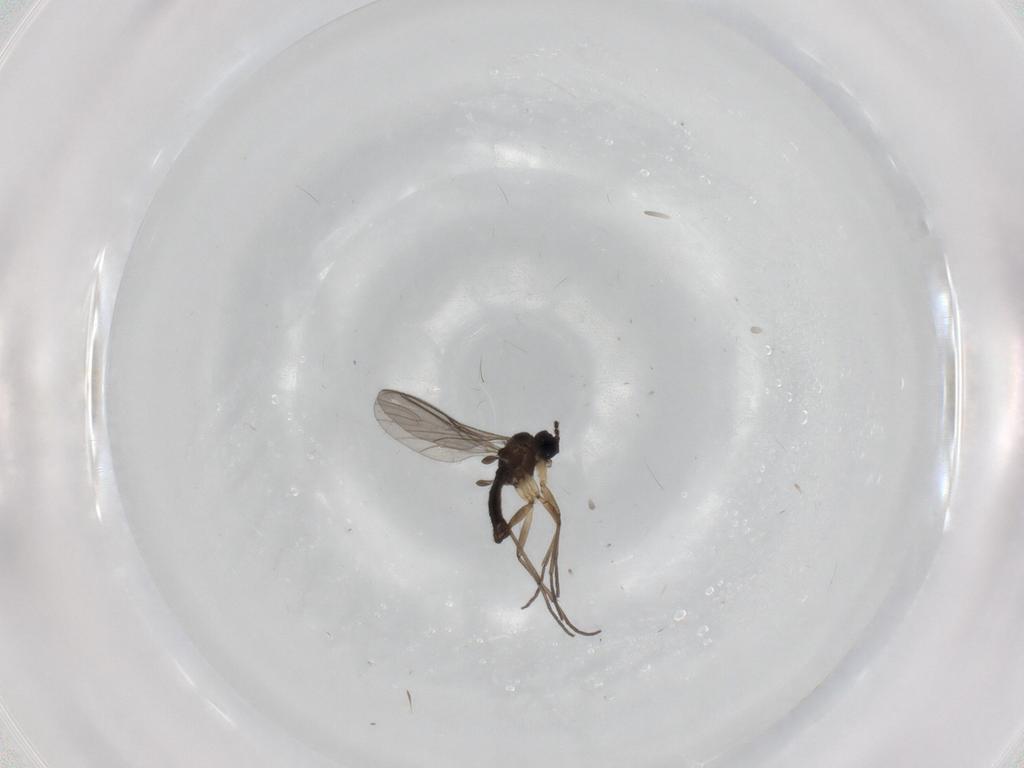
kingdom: Animalia
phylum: Arthropoda
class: Insecta
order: Diptera
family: Sciaridae
